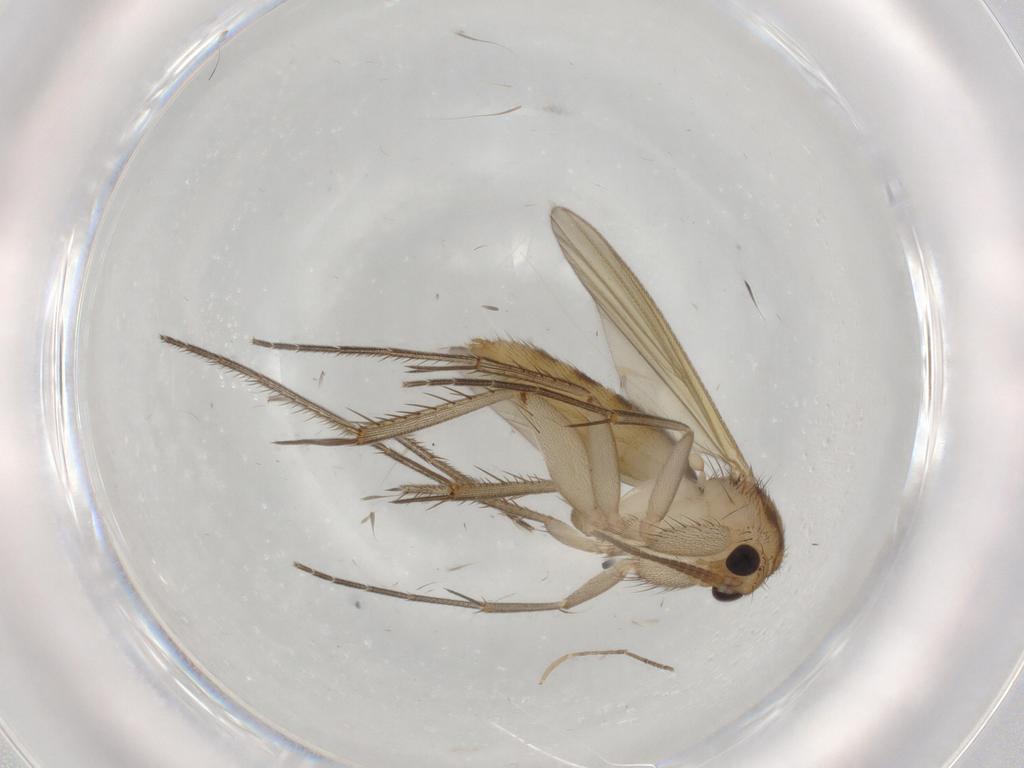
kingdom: Animalia
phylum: Arthropoda
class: Insecta
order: Diptera
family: Mycetophilidae
